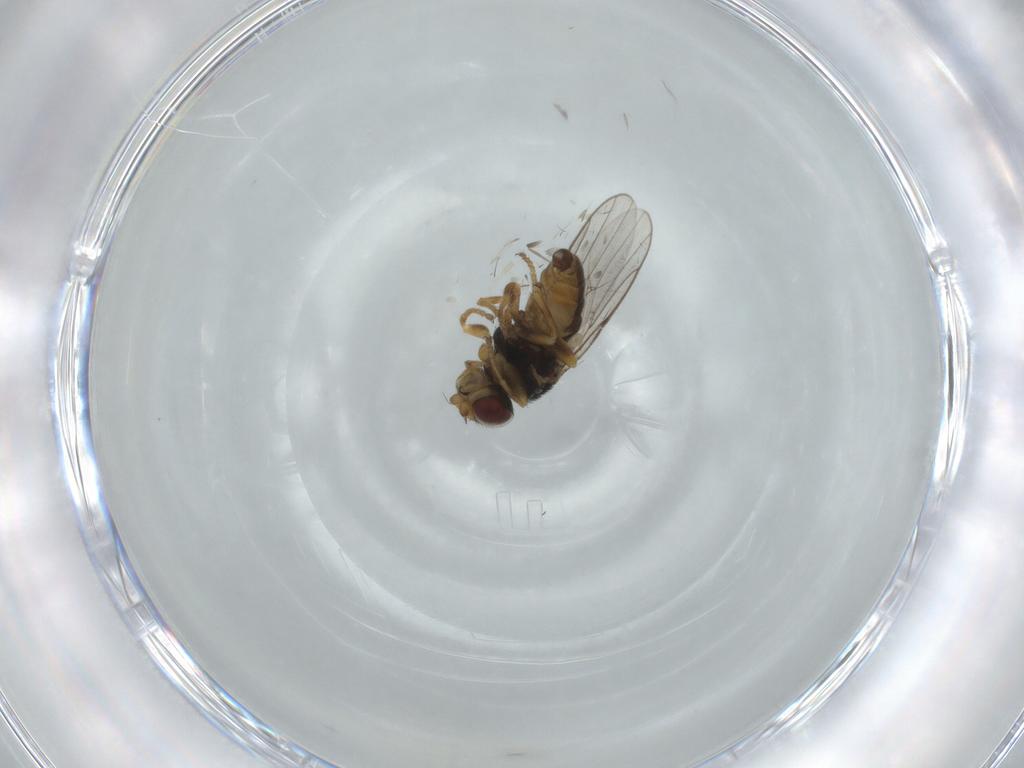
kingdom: Animalia
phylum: Arthropoda
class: Insecta
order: Diptera
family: Chloropidae
